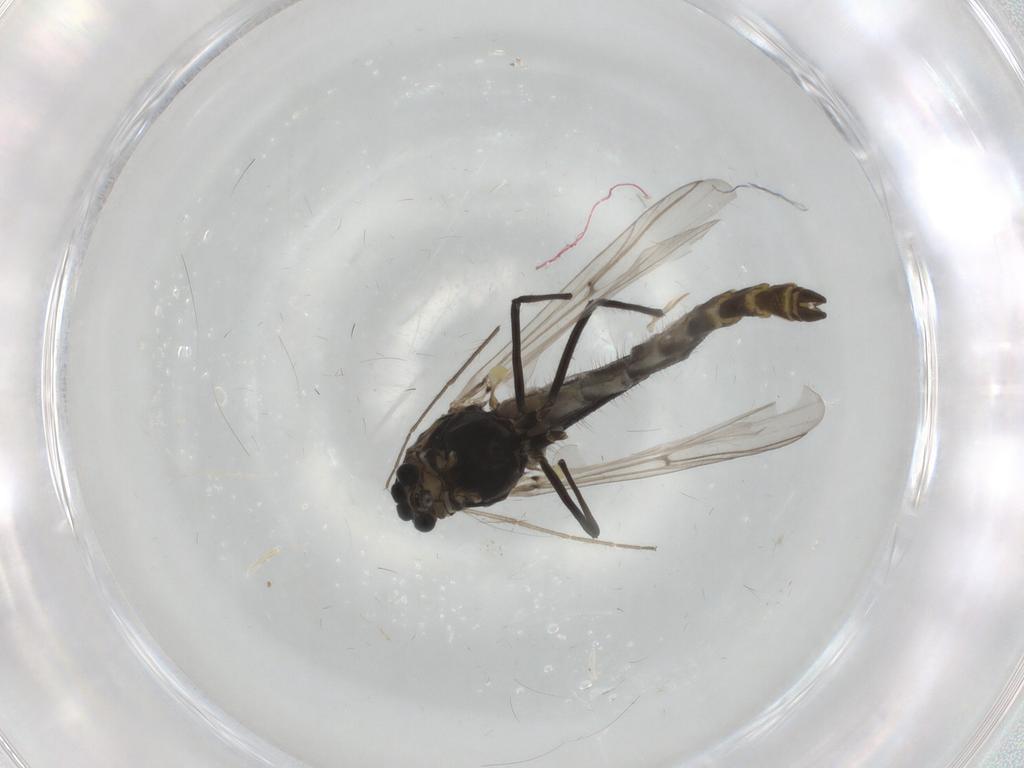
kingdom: Animalia
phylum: Arthropoda
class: Insecta
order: Diptera
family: Chironomidae
